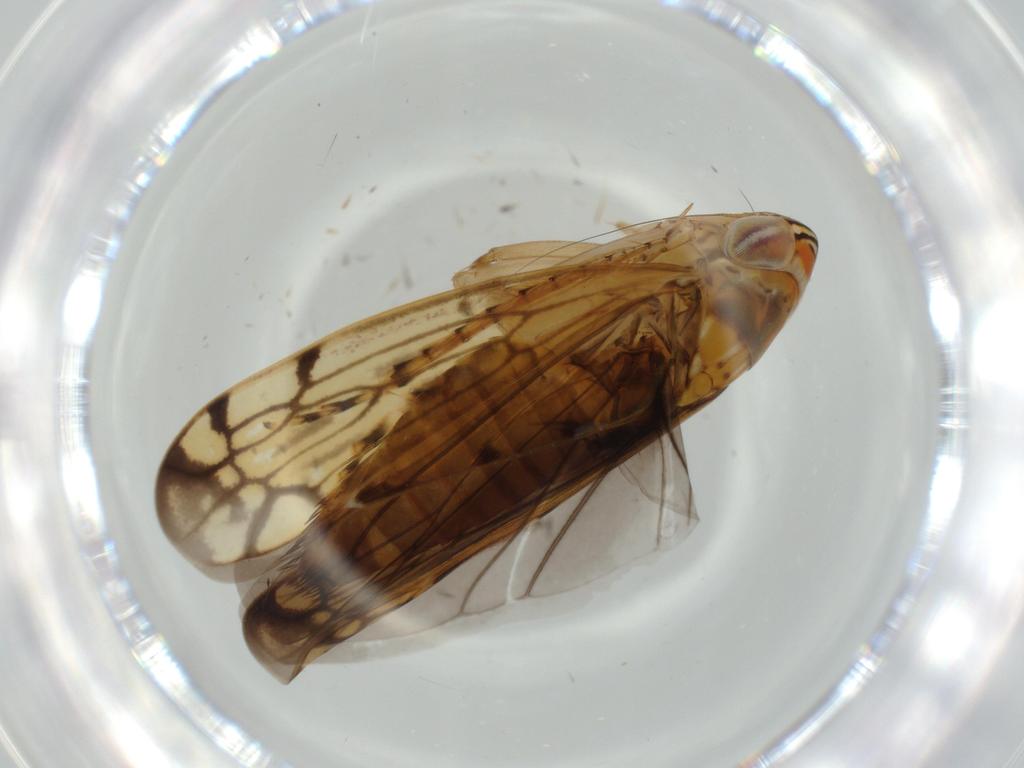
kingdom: Animalia
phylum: Arthropoda
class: Insecta
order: Hemiptera
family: Cicadellidae
